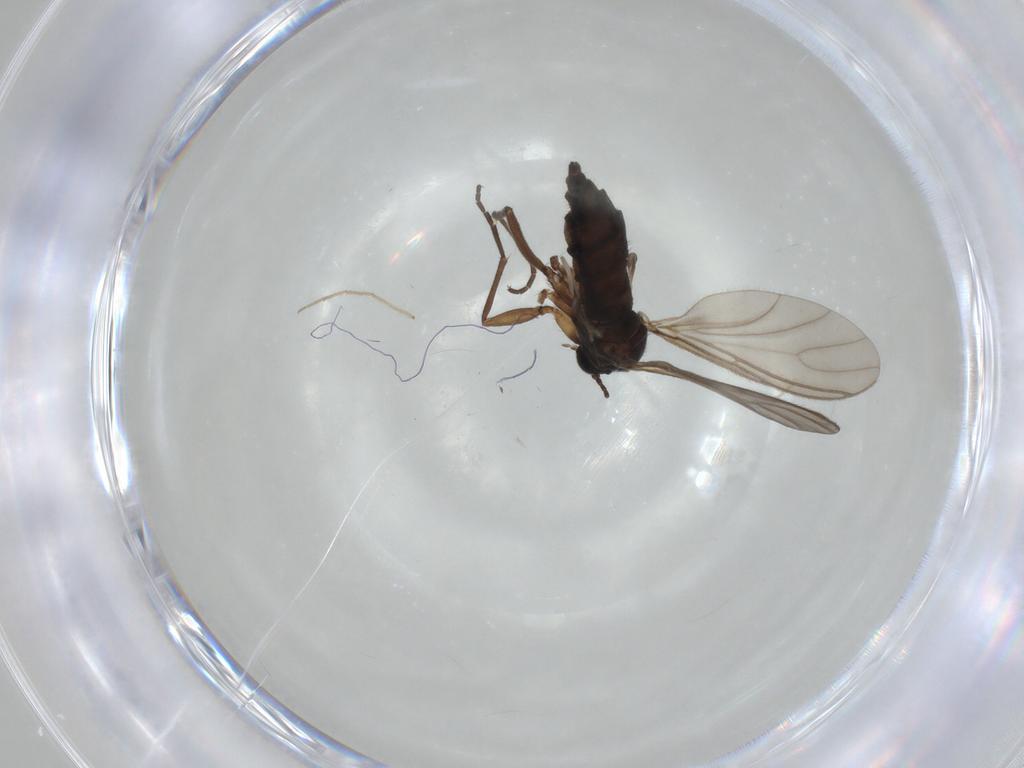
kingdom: Animalia
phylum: Arthropoda
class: Insecta
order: Diptera
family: Sciaridae
